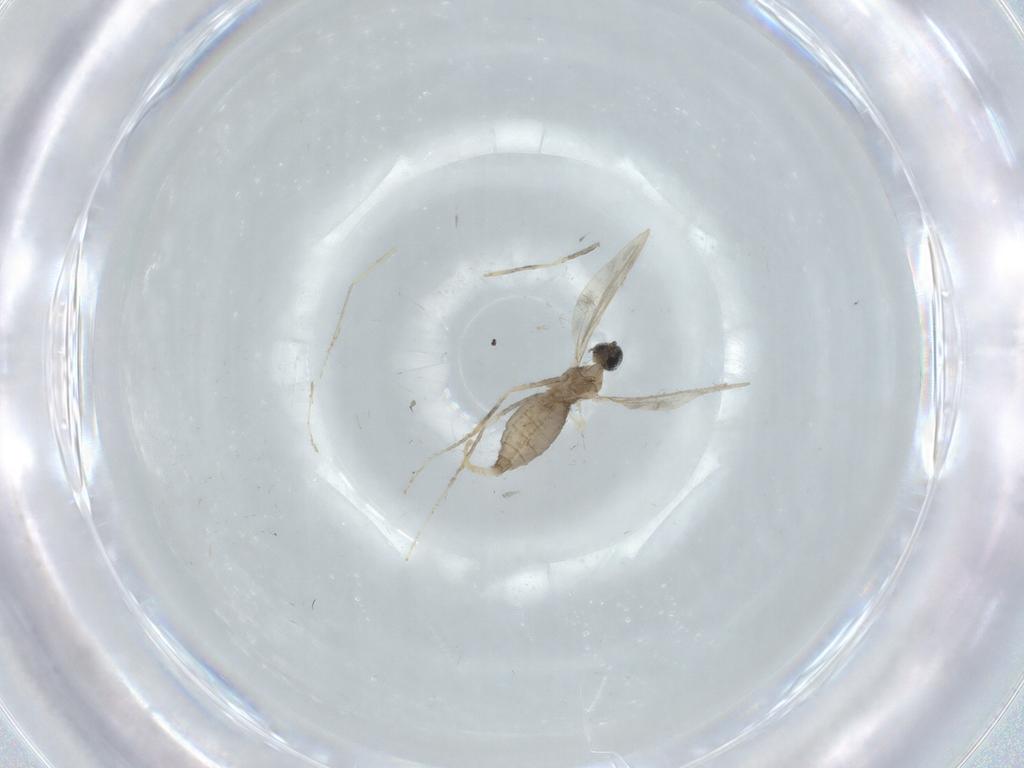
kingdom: Animalia
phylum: Arthropoda
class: Insecta
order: Diptera
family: Cecidomyiidae
